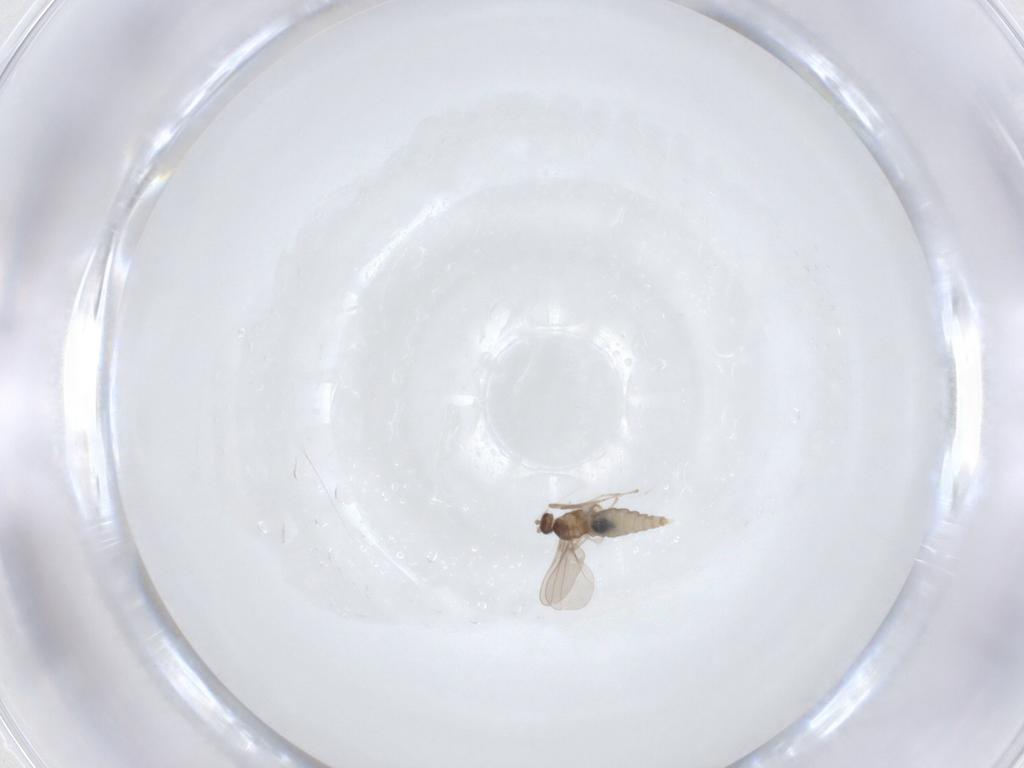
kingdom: Animalia
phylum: Arthropoda
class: Insecta
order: Diptera
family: Cecidomyiidae
